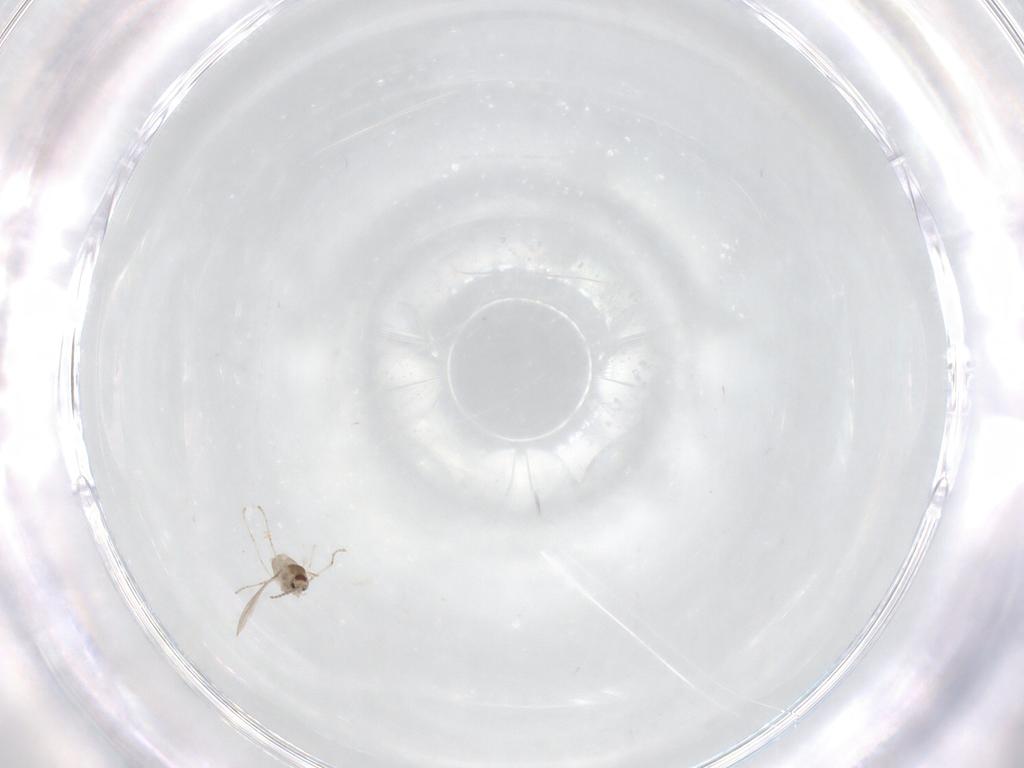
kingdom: Animalia
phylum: Arthropoda
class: Insecta
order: Diptera
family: Cecidomyiidae
